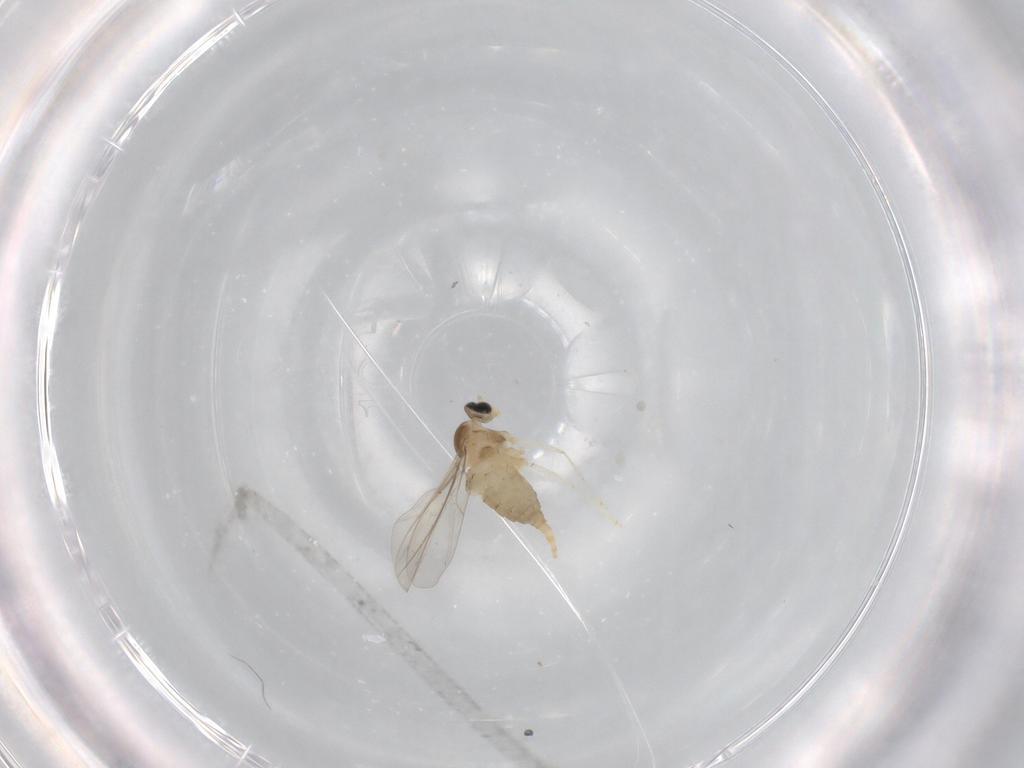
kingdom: Animalia
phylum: Arthropoda
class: Insecta
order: Diptera
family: Cecidomyiidae
